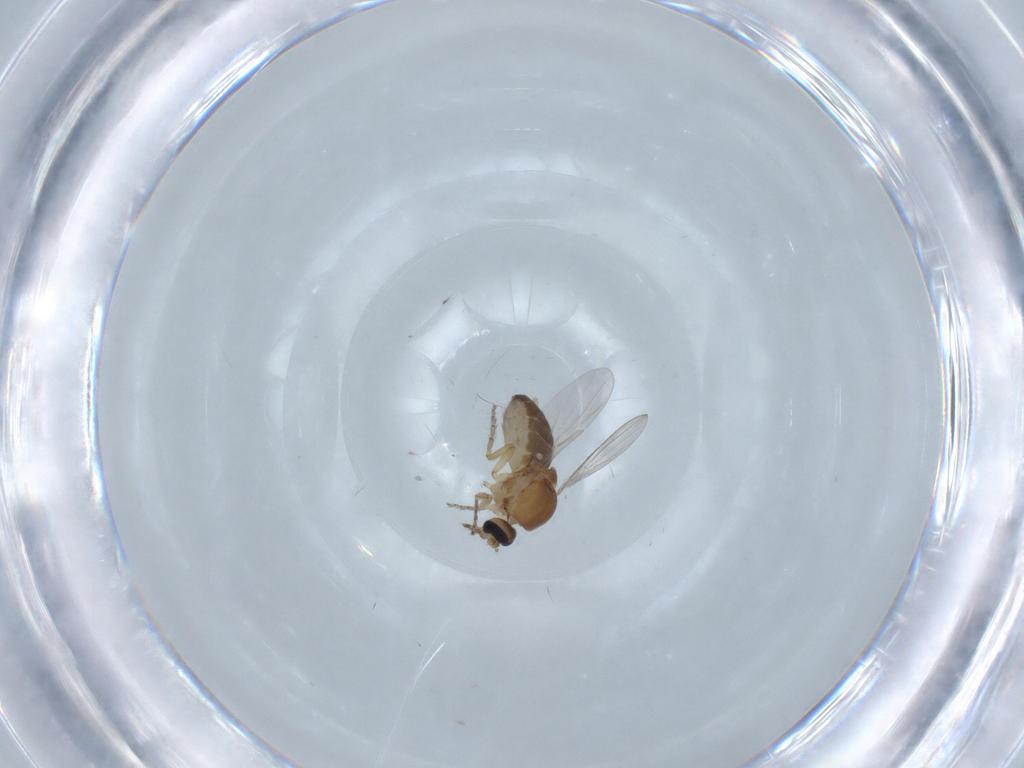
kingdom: Animalia
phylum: Arthropoda
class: Insecta
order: Diptera
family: Ceratopogonidae
